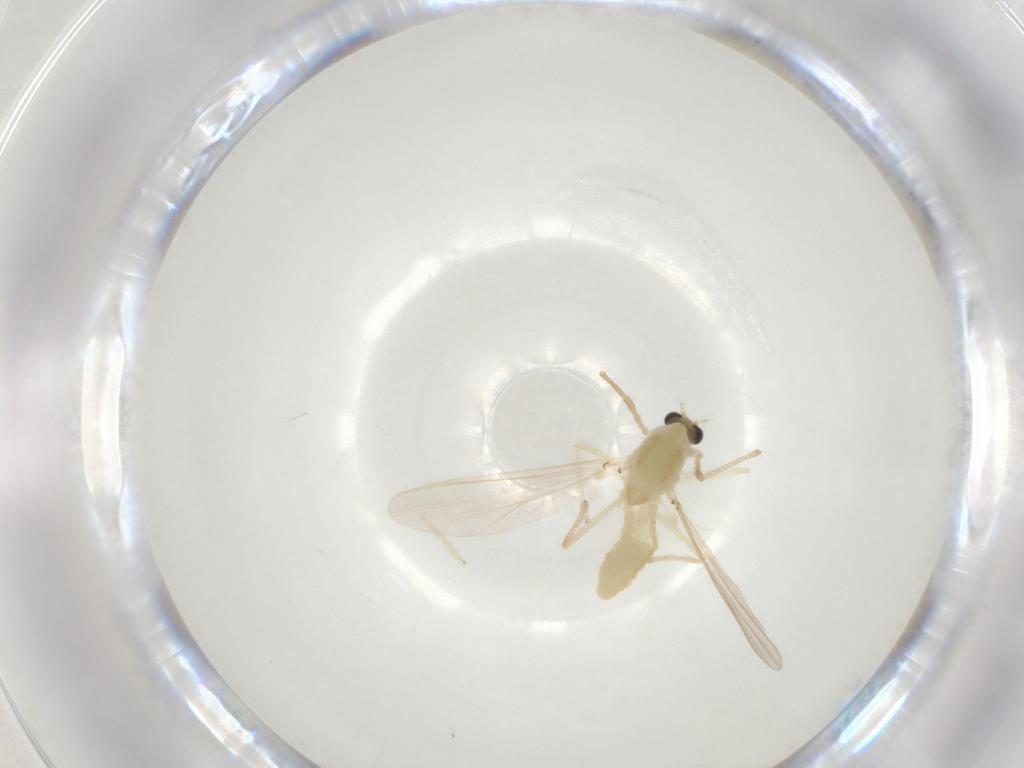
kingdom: Animalia
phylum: Arthropoda
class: Insecta
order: Diptera
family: Chironomidae
